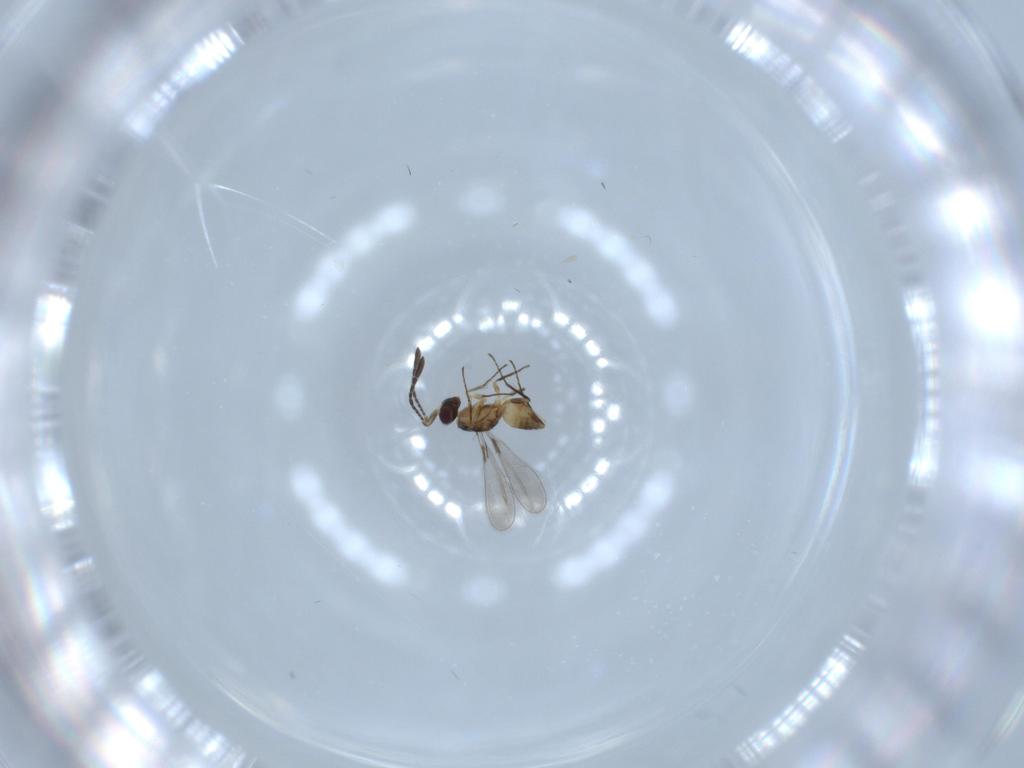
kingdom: Animalia
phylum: Arthropoda
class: Insecta
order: Hymenoptera
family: Mymaridae
